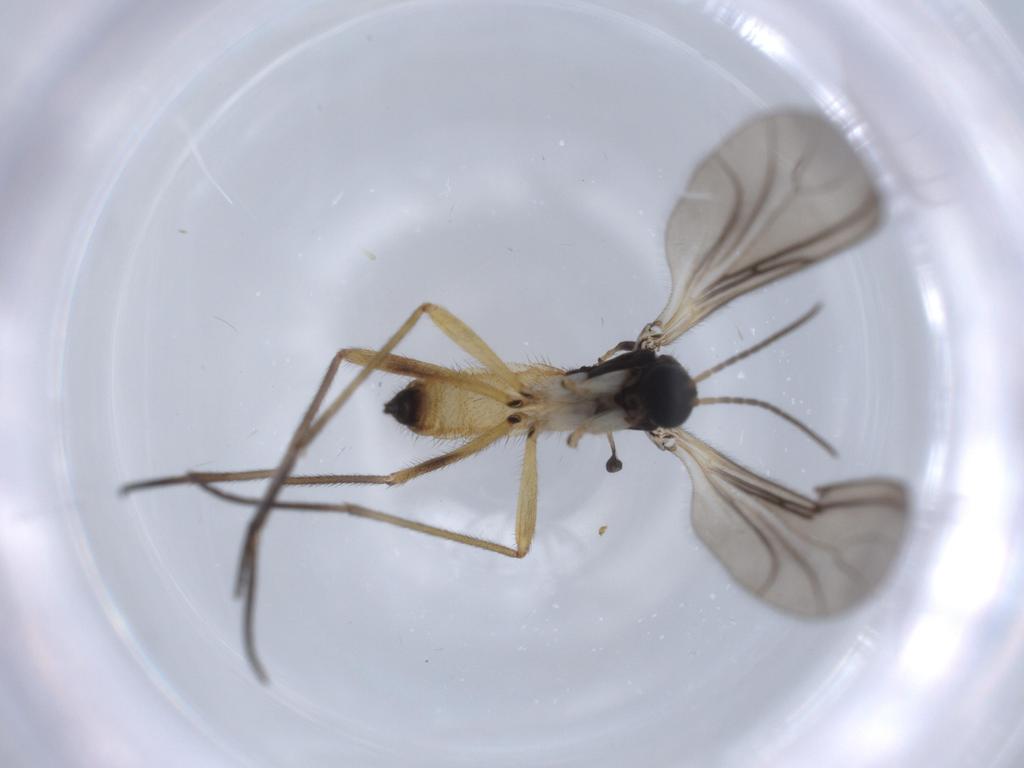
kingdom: Animalia
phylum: Arthropoda
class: Insecta
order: Diptera
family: Sciaridae
